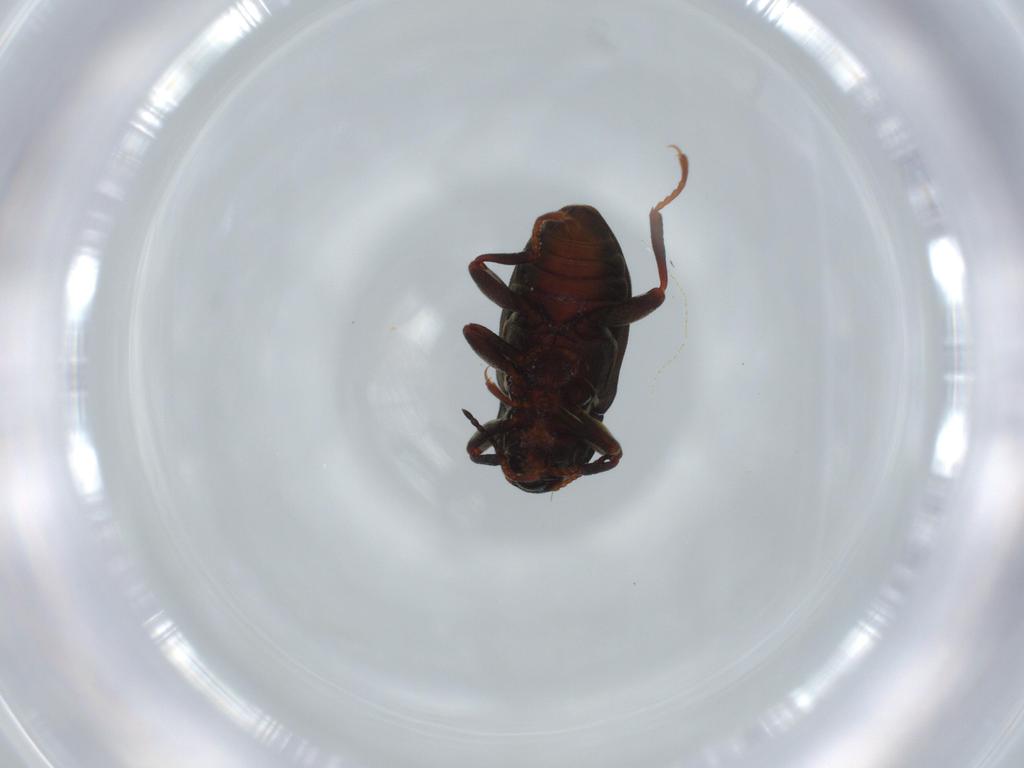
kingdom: Animalia
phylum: Arthropoda
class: Insecta
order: Coleoptera
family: Elmidae
